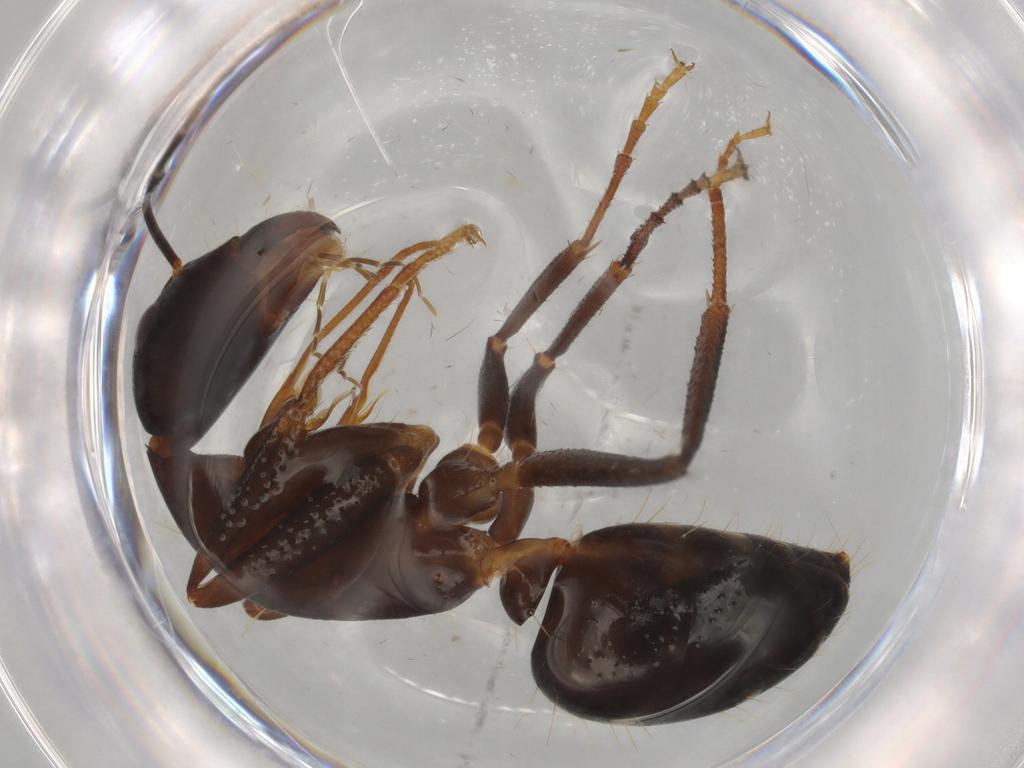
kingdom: Animalia
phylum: Arthropoda
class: Insecta
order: Hymenoptera
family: Formicidae
